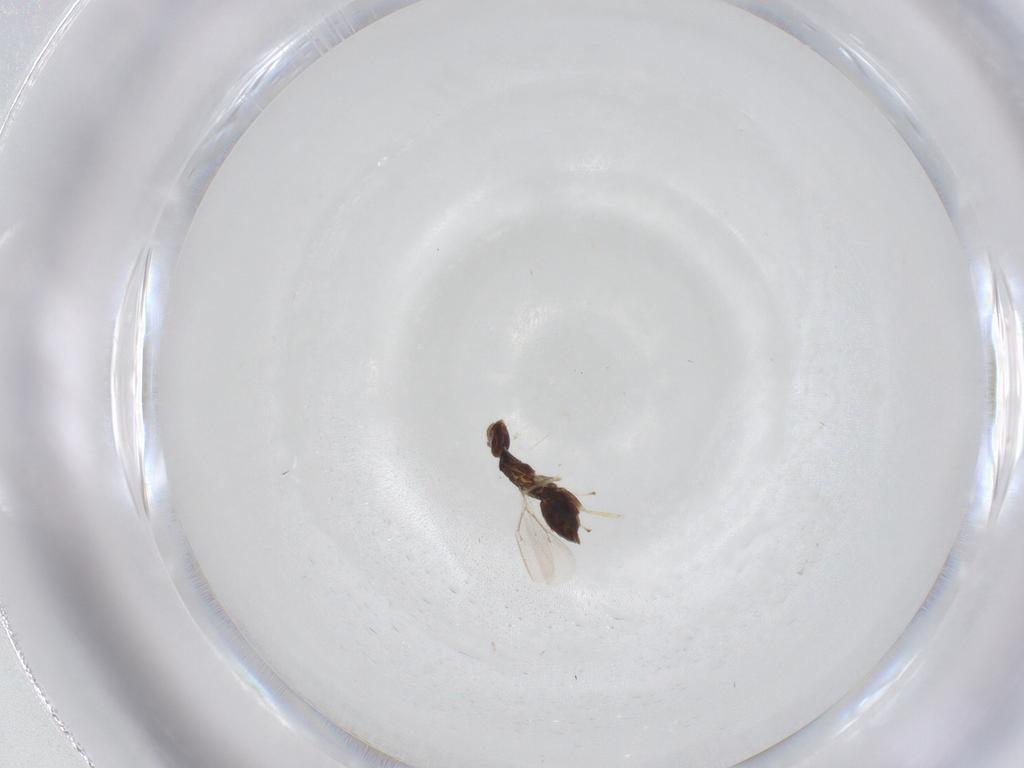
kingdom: Animalia
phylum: Arthropoda
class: Insecta
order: Hymenoptera
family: Eulophidae
